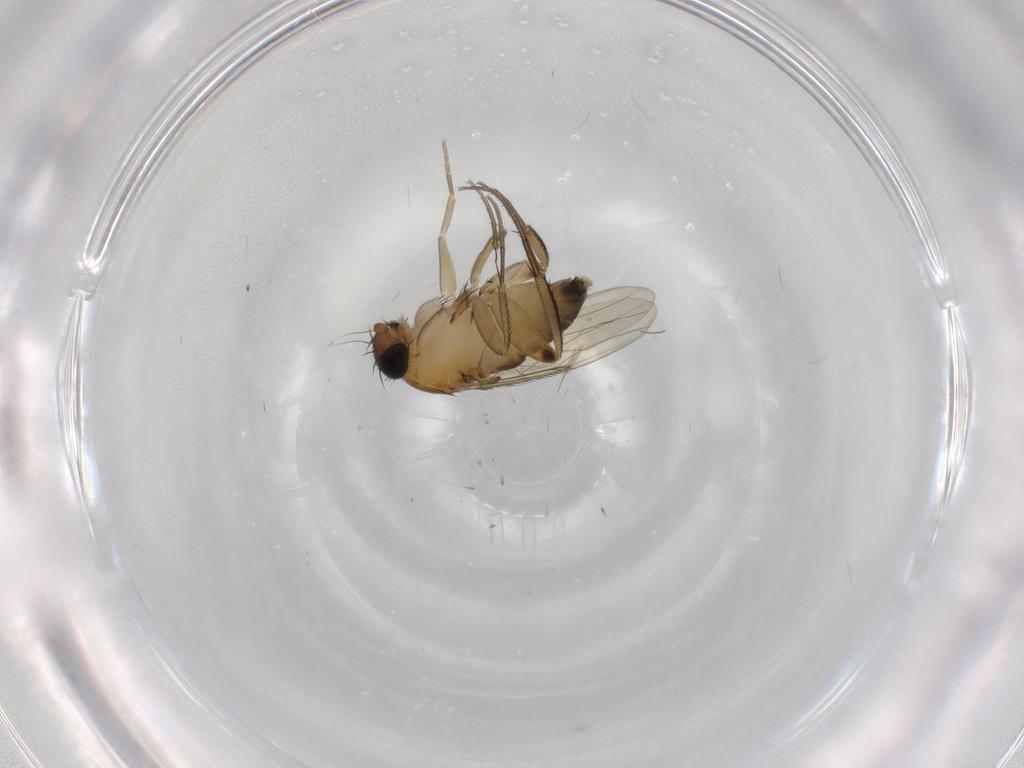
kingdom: Animalia
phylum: Arthropoda
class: Insecta
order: Diptera
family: Phoridae
